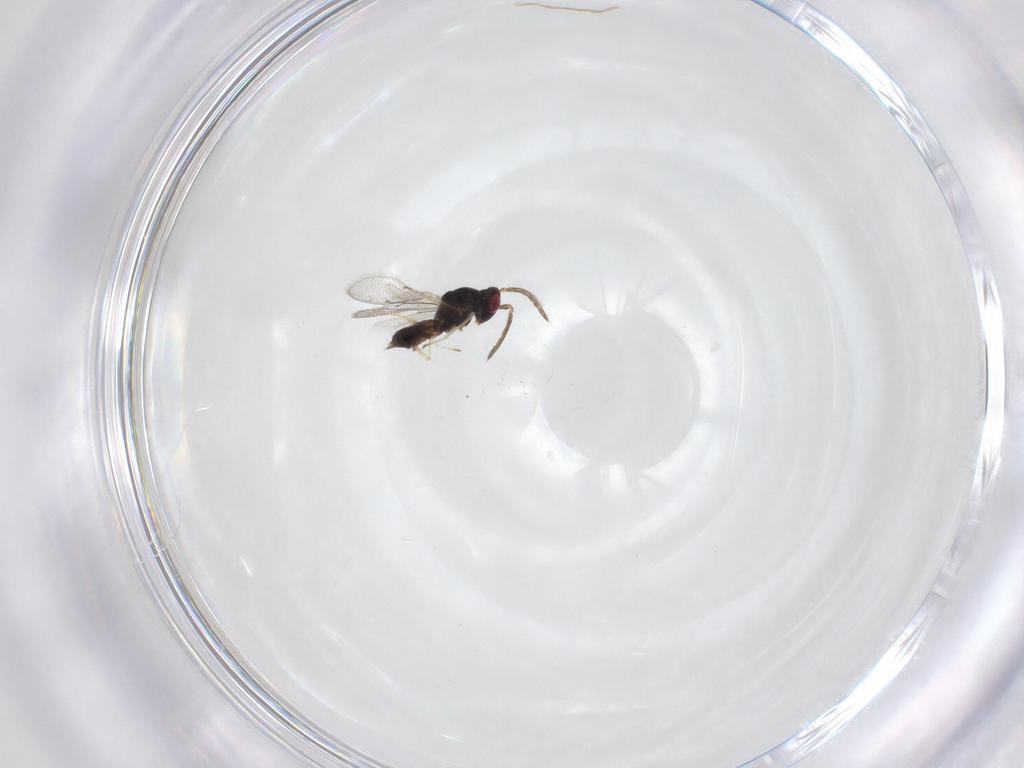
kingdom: Animalia
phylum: Arthropoda
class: Insecta
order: Hymenoptera
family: Eulophidae
